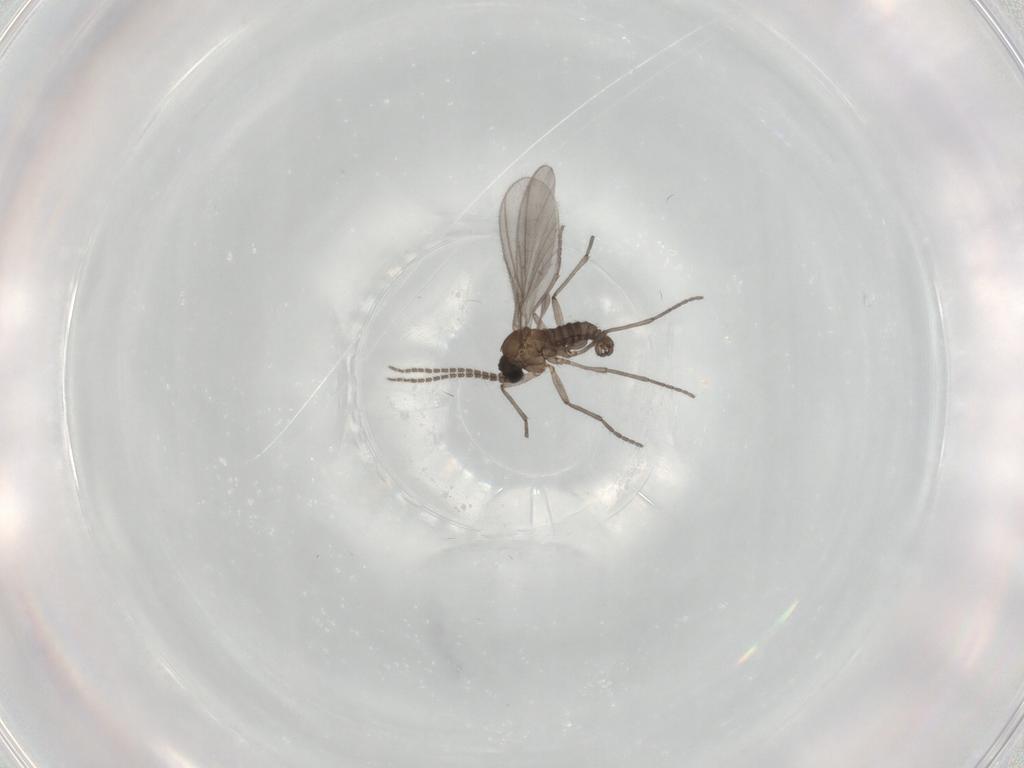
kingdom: Animalia
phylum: Arthropoda
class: Insecta
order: Diptera
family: Sciaridae
